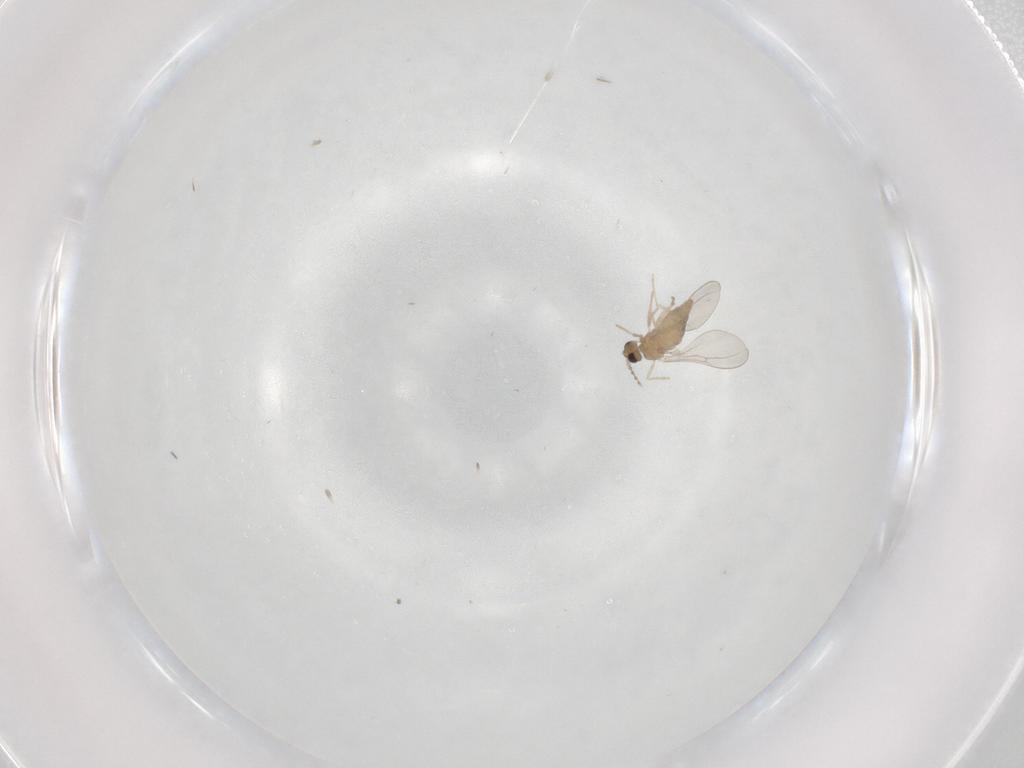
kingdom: Animalia
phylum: Arthropoda
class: Insecta
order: Diptera
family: Cecidomyiidae
